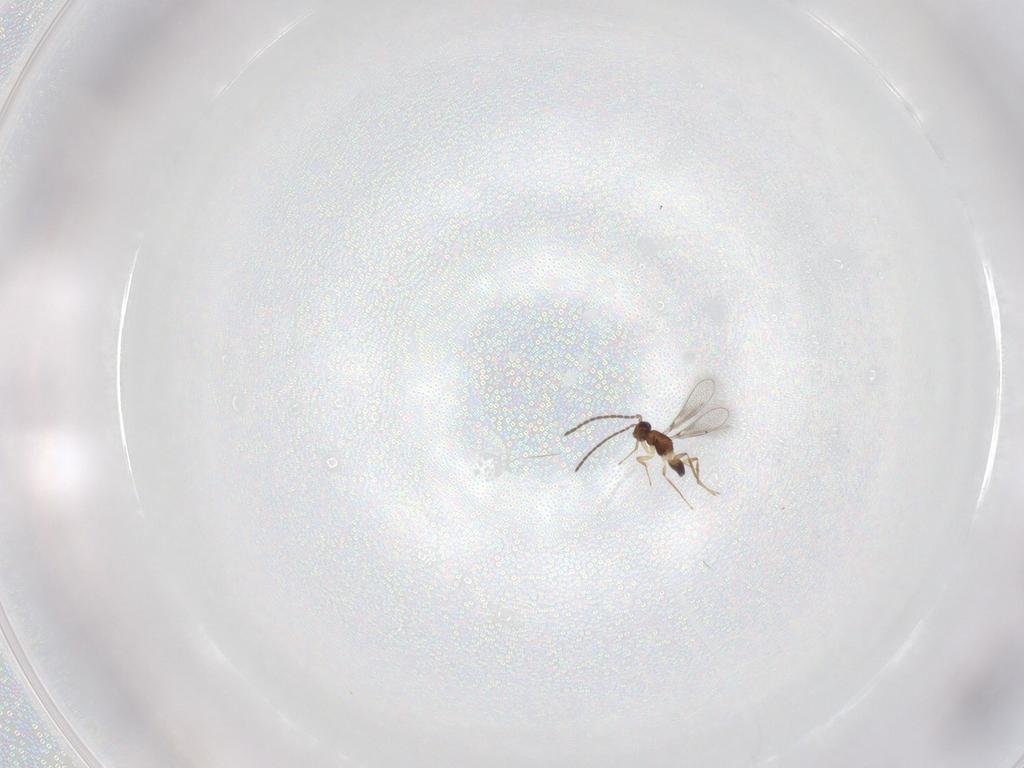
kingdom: Animalia
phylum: Arthropoda
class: Insecta
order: Hymenoptera
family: Mymaridae
